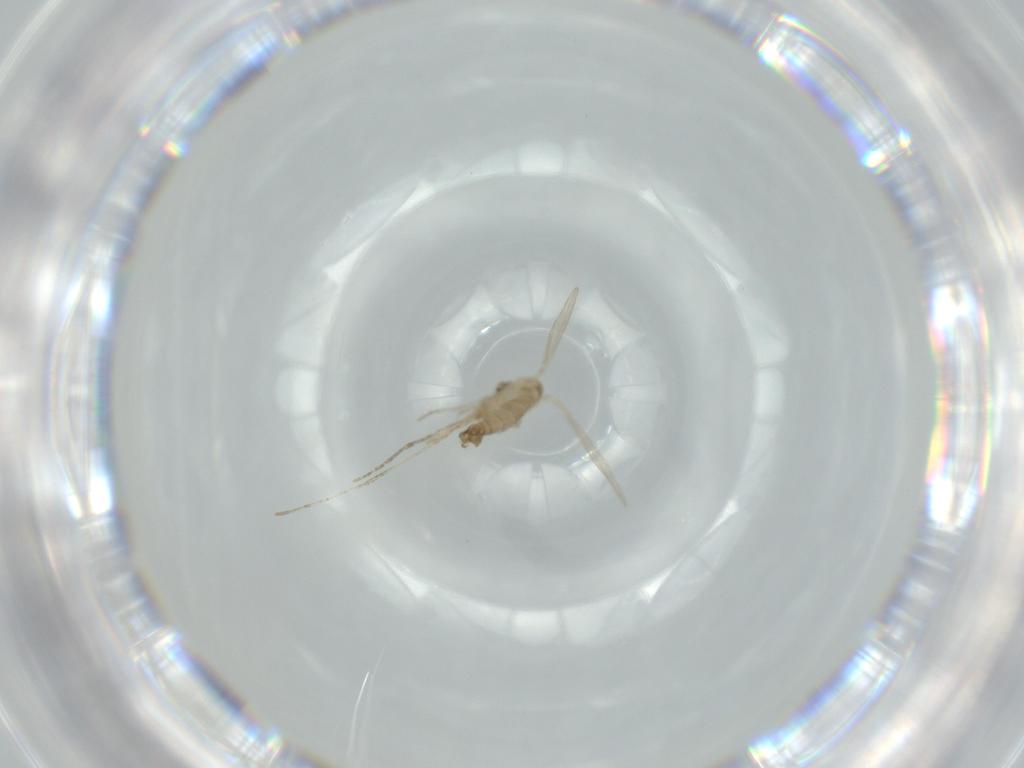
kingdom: Animalia
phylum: Arthropoda
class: Insecta
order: Diptera
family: Psychodidae
